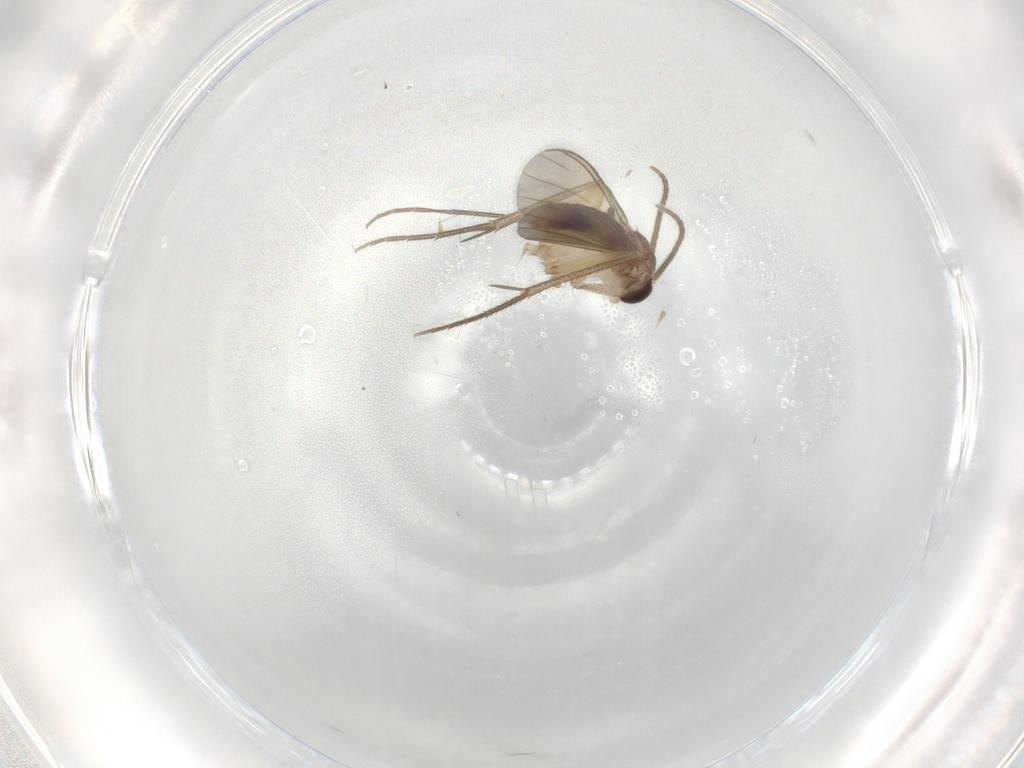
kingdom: Animalia
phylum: Arthropoda
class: Insecta
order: Diptera
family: Mycetophilidae
